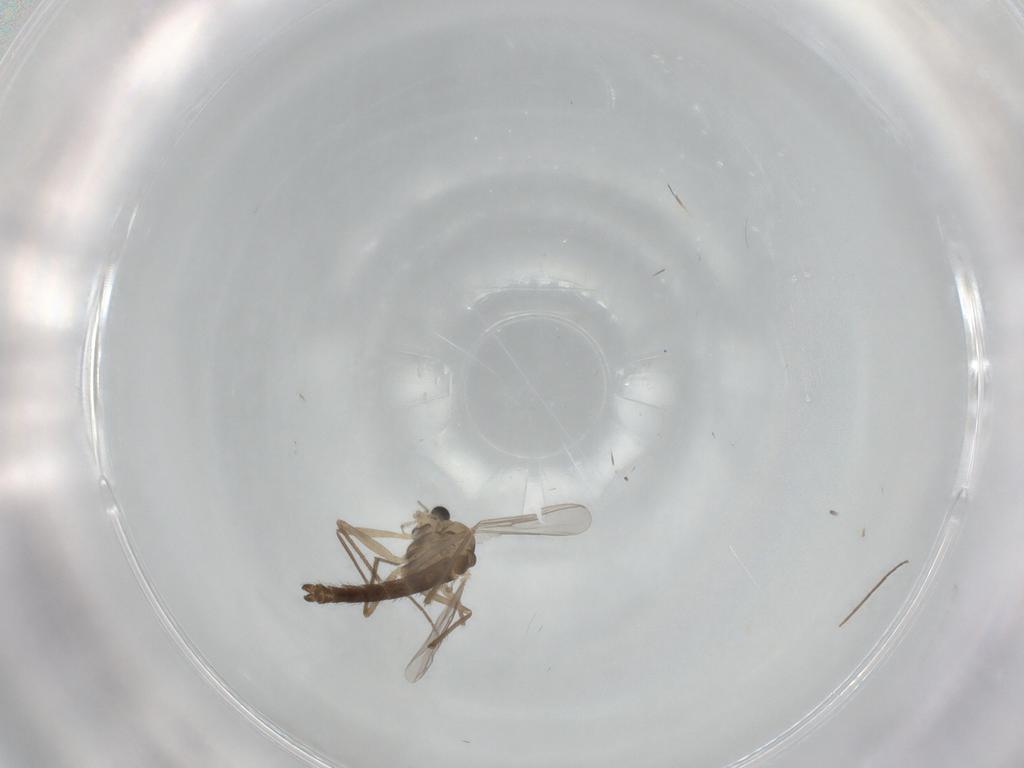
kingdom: Animalia
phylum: Arthropoda
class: Insecta
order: Diptera
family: Chironomidae
